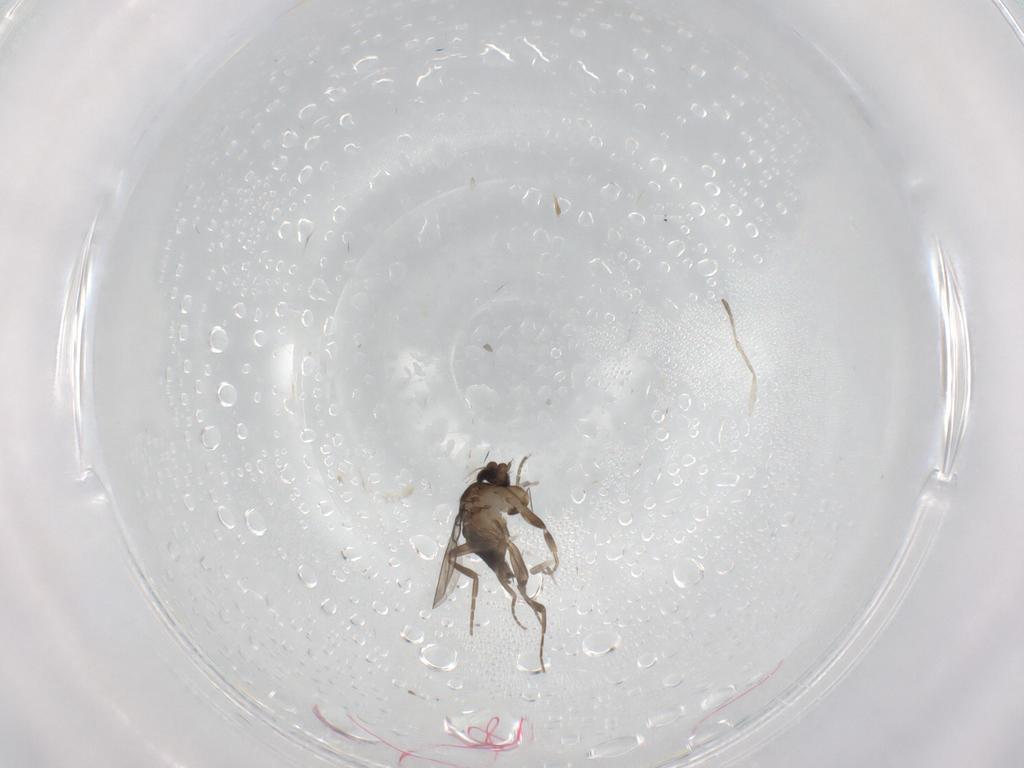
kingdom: Animalia
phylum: Arthropoda
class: Insecta
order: Diptera
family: Phoridae
